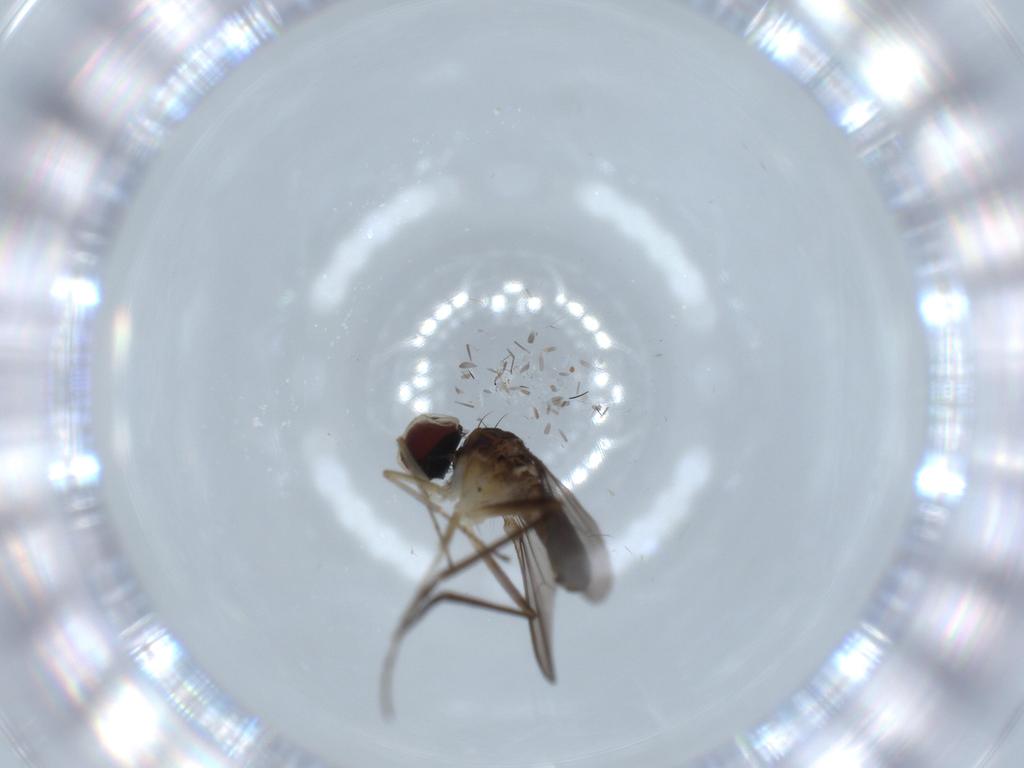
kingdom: Animalia
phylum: Arthropoda
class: Insecta
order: Diptera
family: Dolichopodidae
